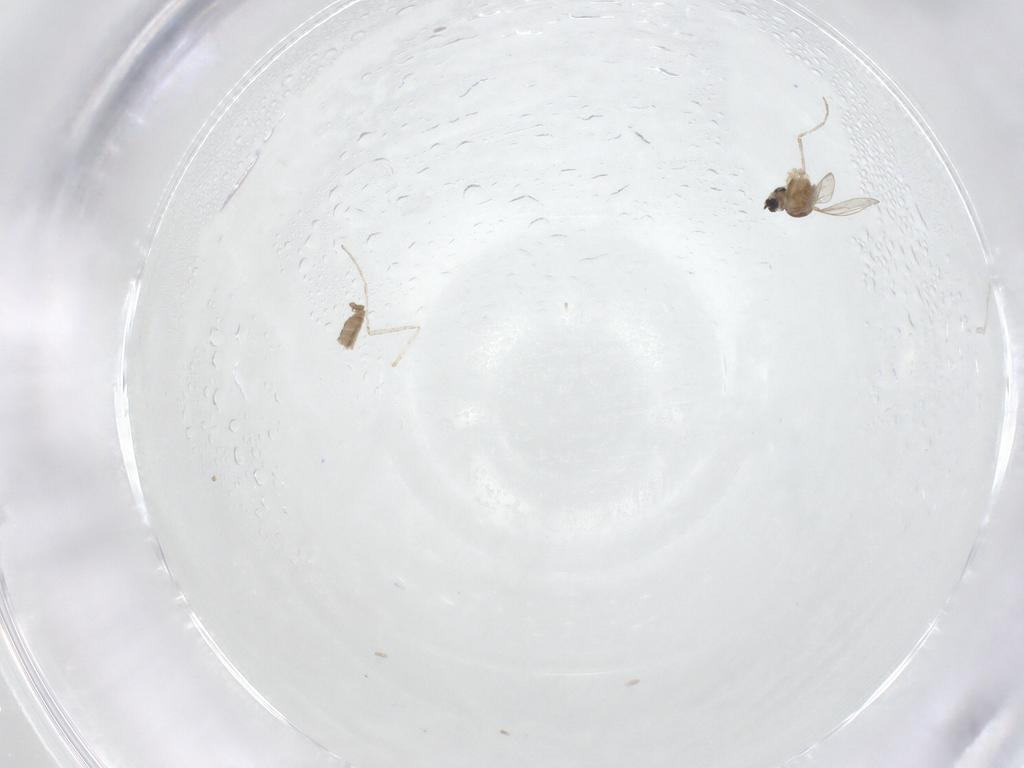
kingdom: Animalia
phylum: Arthropoda
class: Insecta
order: Diptera
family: Cecidomyiidae
